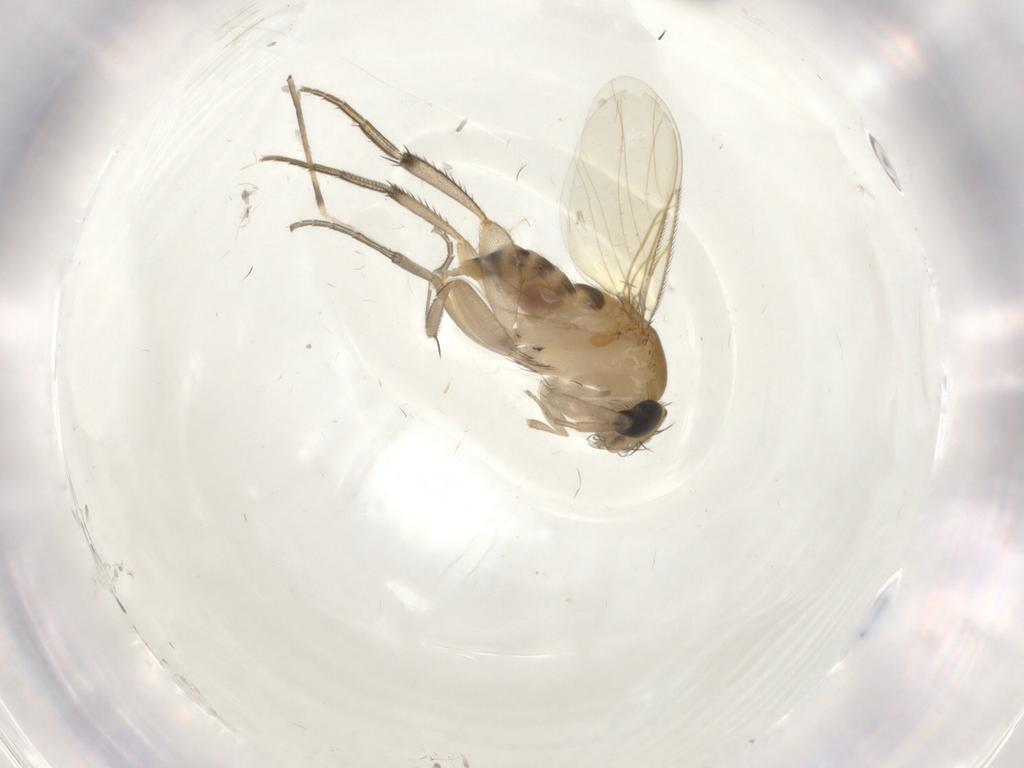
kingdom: Animalia
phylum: Arthropoda
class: Insecta
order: Diptera
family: Phoridae
